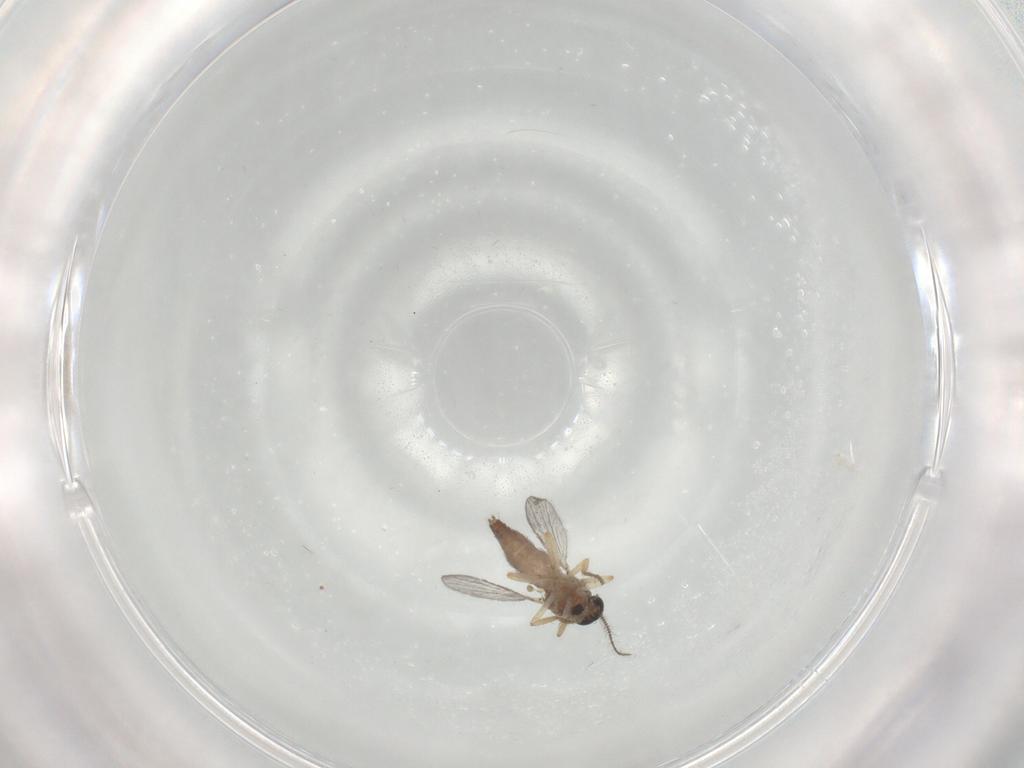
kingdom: Animalia
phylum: Arthropoda
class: Insecta
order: Diptera
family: Ceratopogonidae
